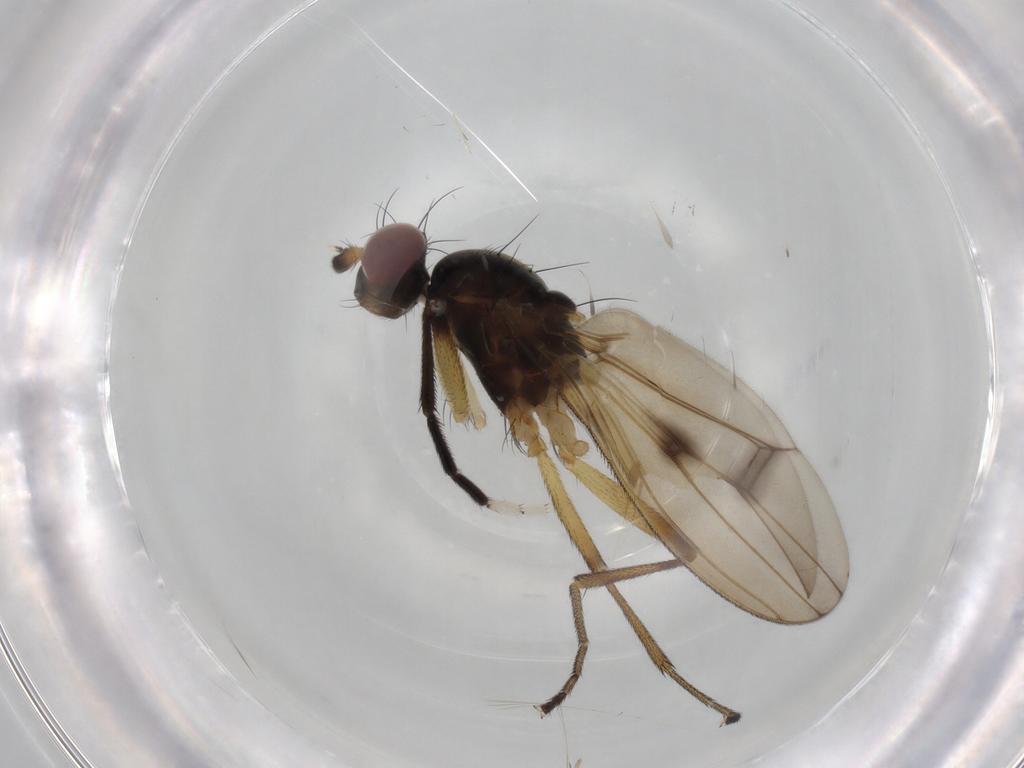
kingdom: Animalia
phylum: Arthropoda
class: Insecta
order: Diptera
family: Sciomyzidae
